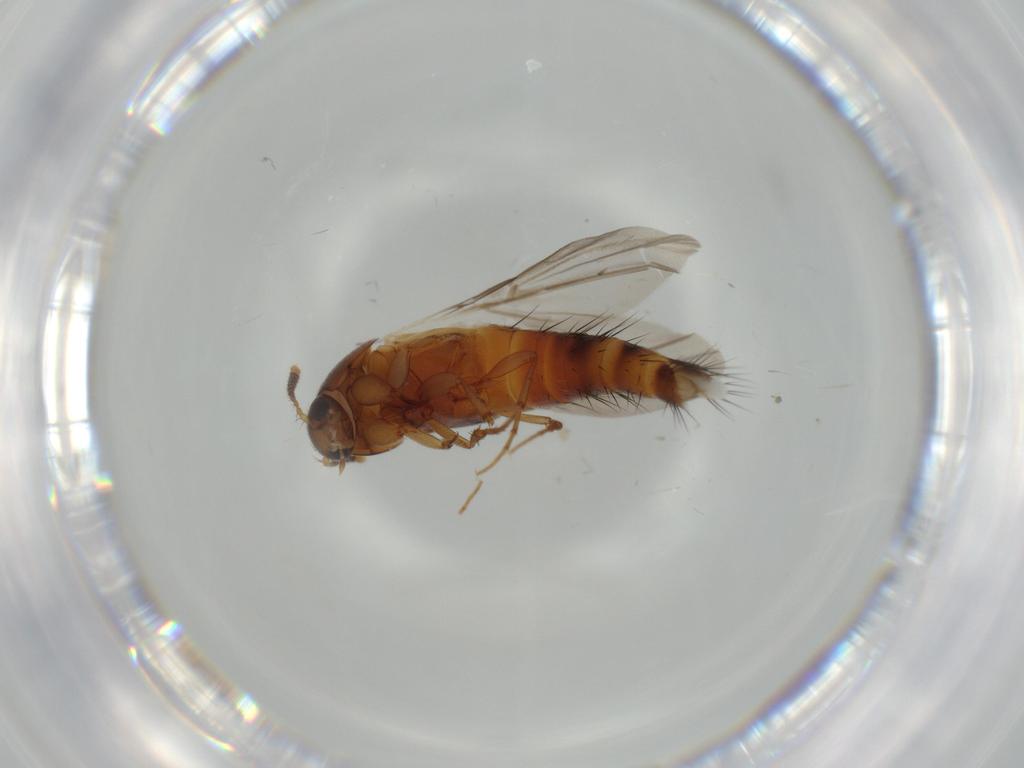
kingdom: Animalia
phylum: Arthropoda
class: Insecta
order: Coleoptera
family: Staphylinidae
